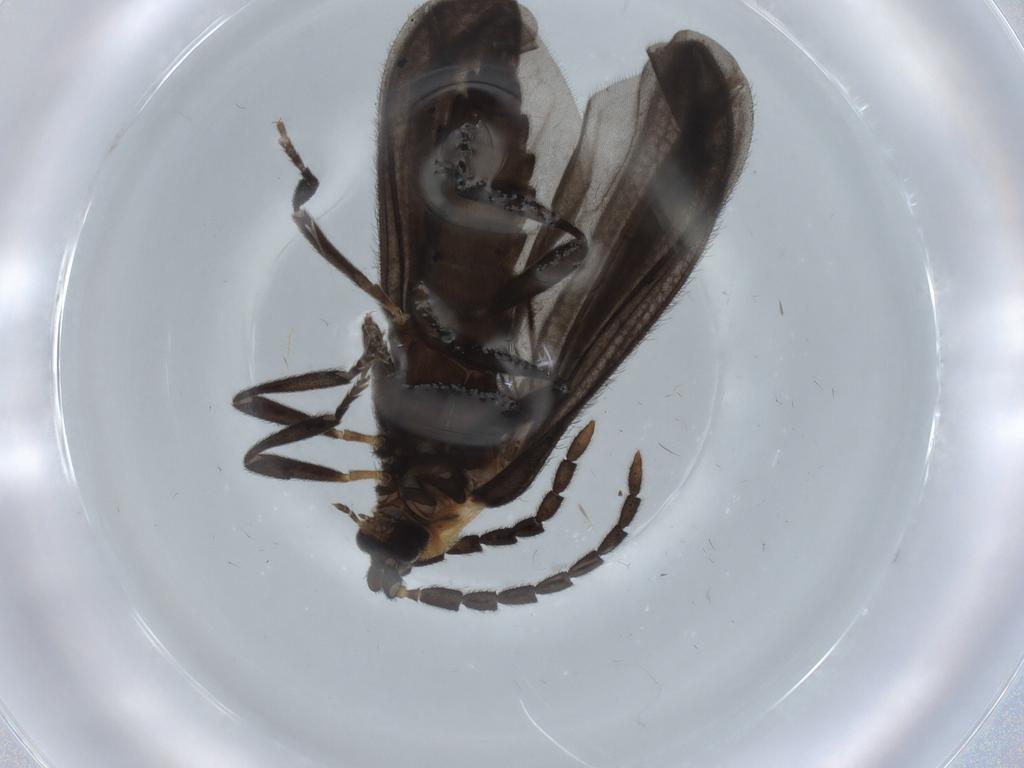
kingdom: Animalia
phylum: Arthropoda
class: Insecta
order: Coleoptera
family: Lycidae
